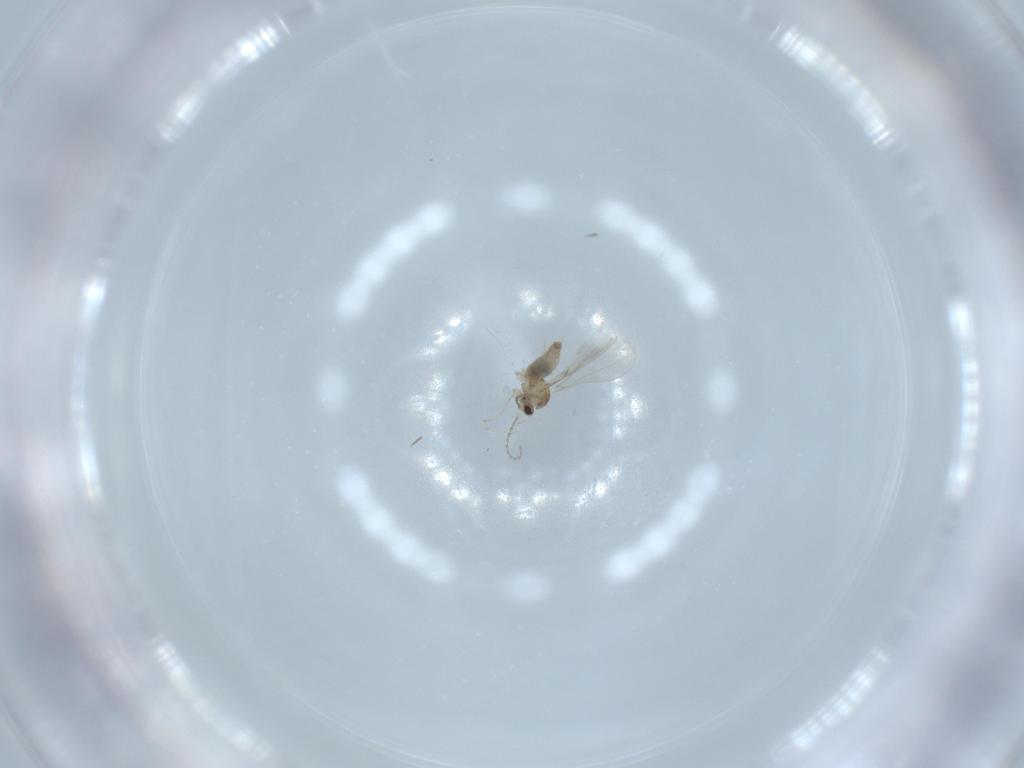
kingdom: Animalia
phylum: Arthropoda
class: Insecta
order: Diptera
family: Cecidomyiidae
